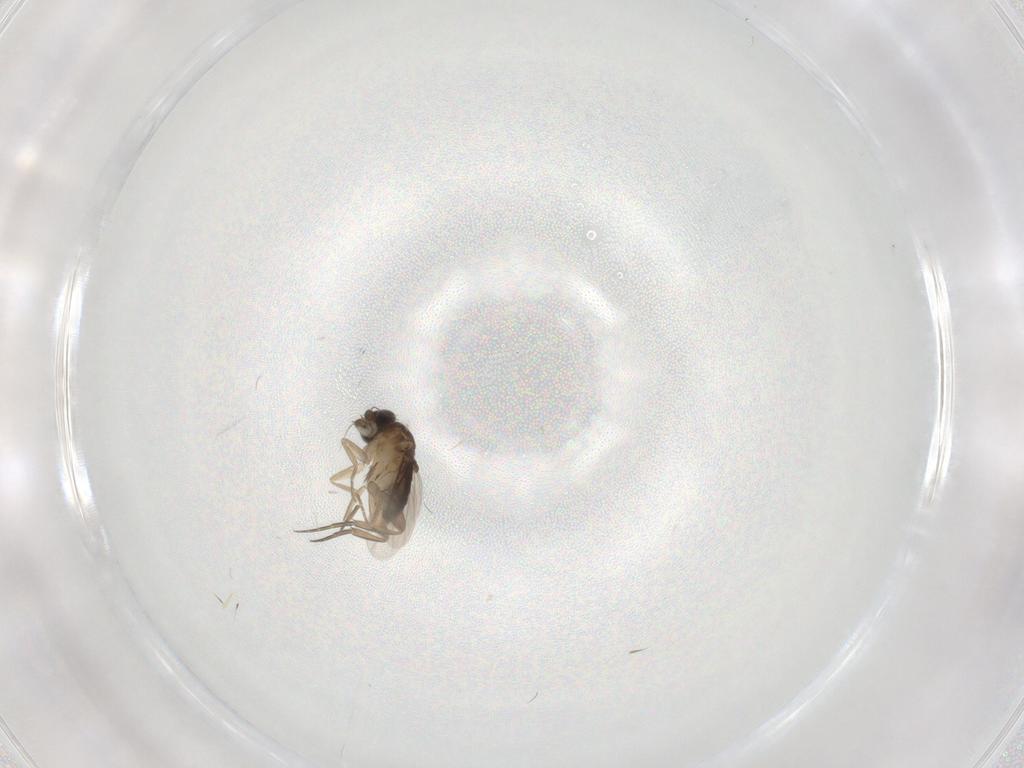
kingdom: Animalia
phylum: Arthropoda
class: Insecta
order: Diptera
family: Phoridae
